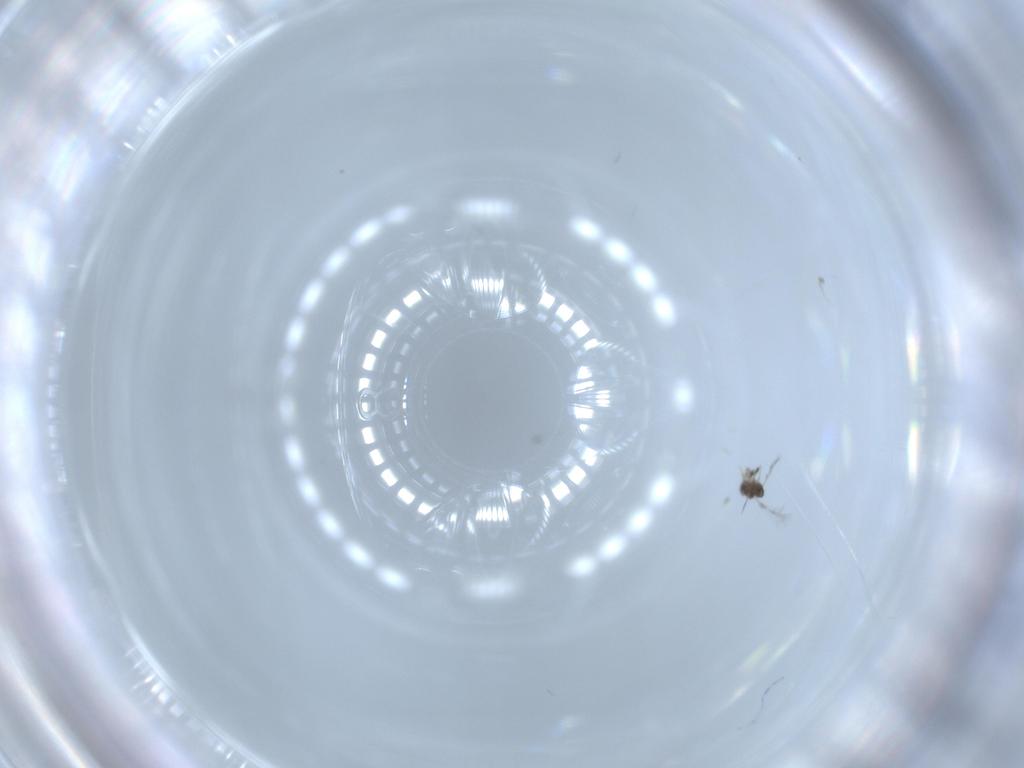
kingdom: Animalia
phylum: Arthropoda
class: Insecta
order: Hymenoptera
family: Mymaridae
